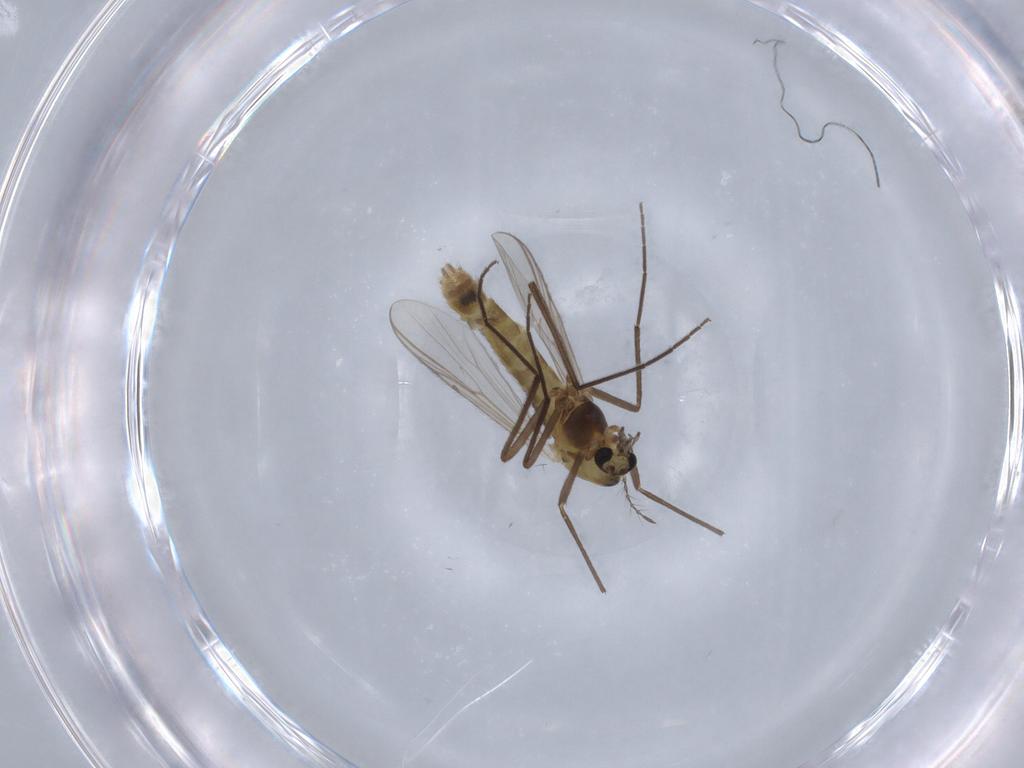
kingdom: Animalia
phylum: Arthropoda
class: Insecta
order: Diptera
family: Chironomidae
